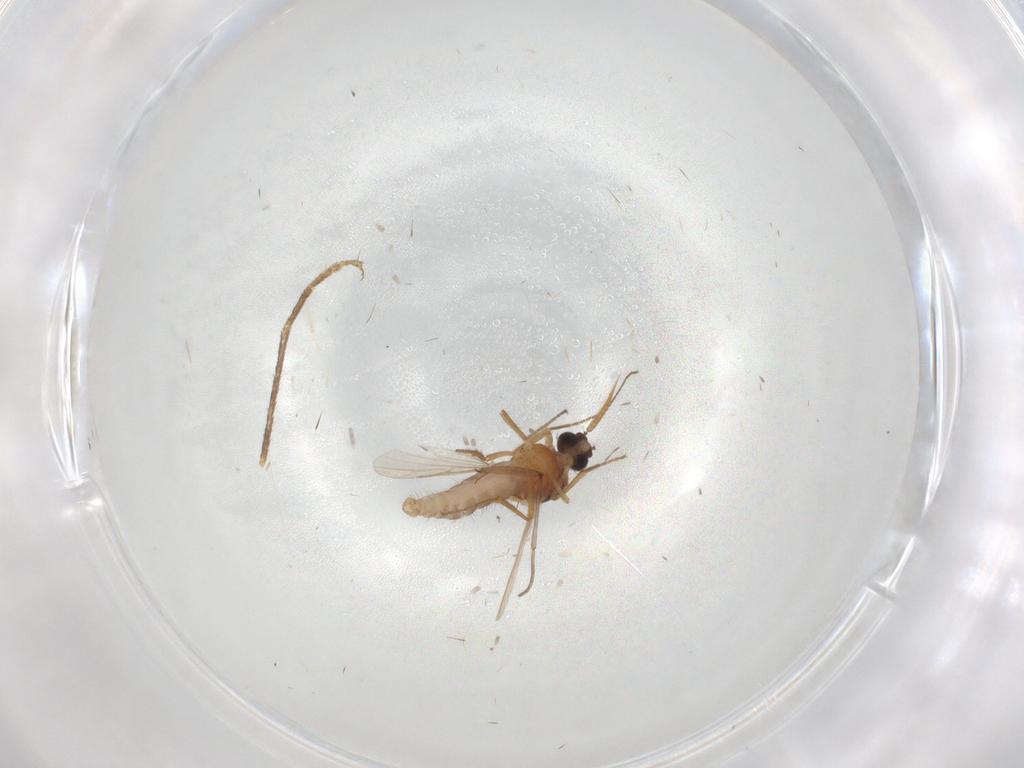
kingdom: Animalia
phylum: Arthropoda
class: Insecta
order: Diptera
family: Ceratopogonidae
